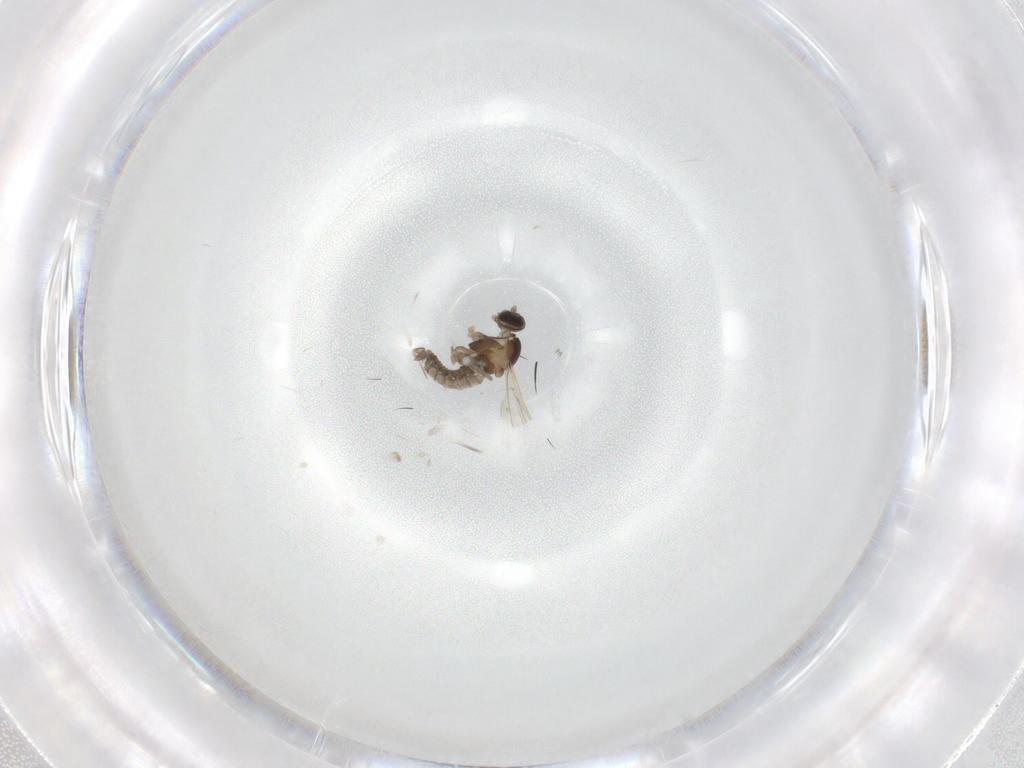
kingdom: Animalia
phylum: Arthropoda
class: Insecta
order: Diptera
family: Cecidomyiidae
